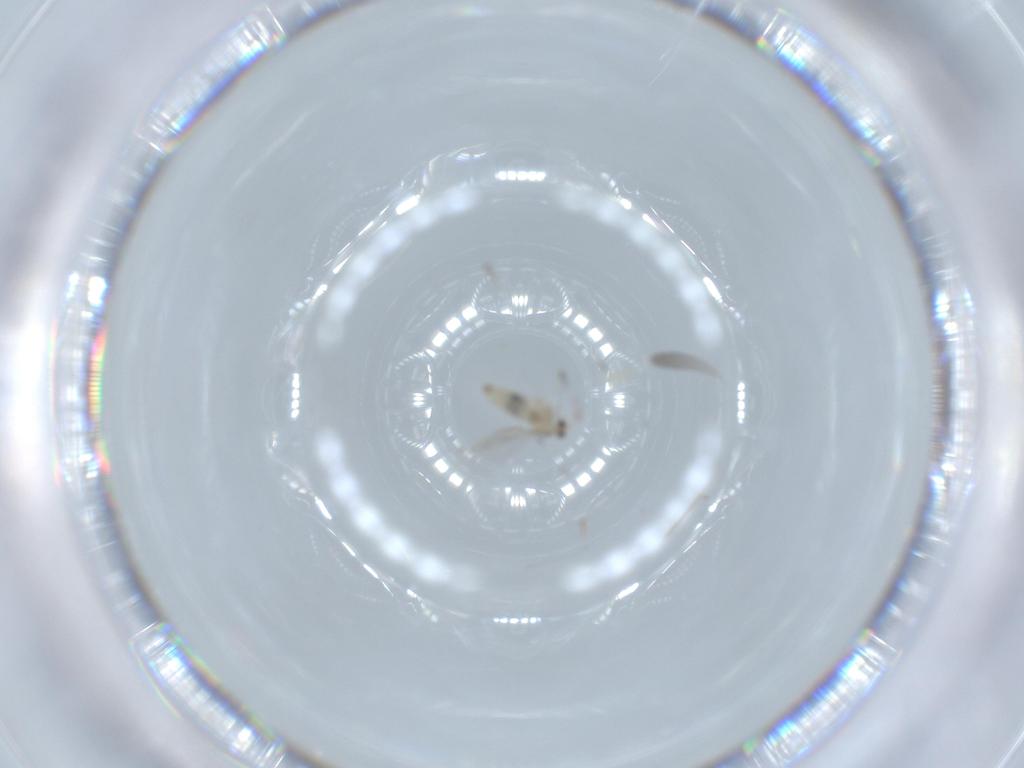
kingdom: Animalia
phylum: Arthropoda
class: Insecta
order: Diptera
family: Cecidomyiidae
